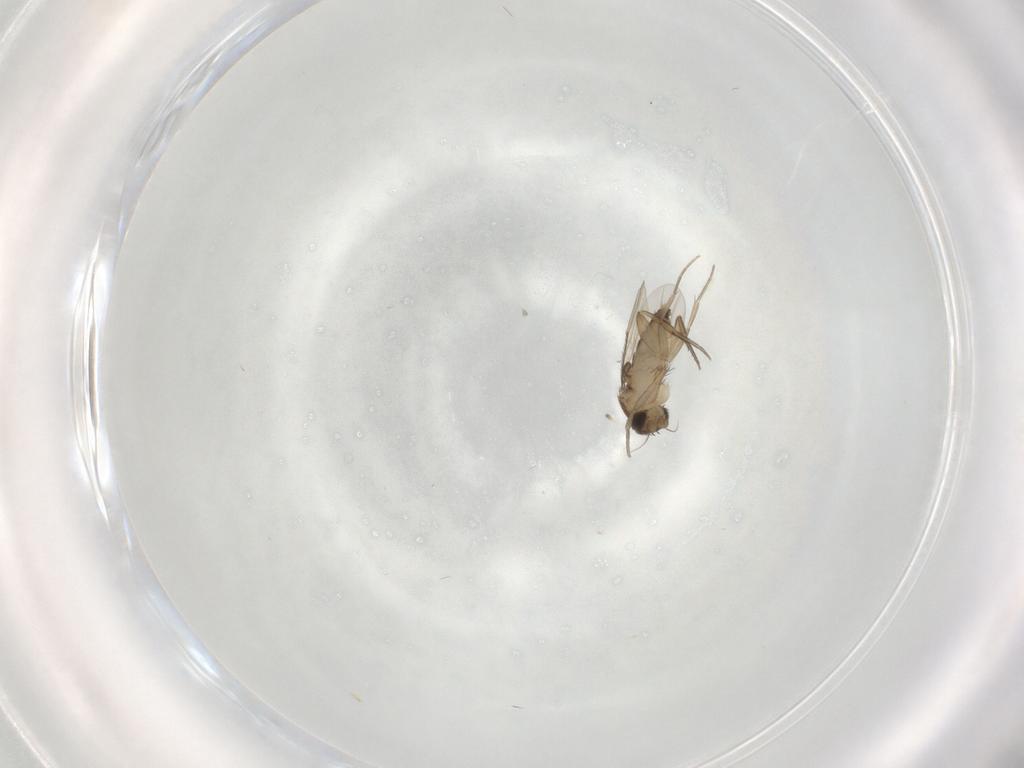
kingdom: Animalia
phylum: Arthropoda
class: Insecta
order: Diptera
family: Phoridae
